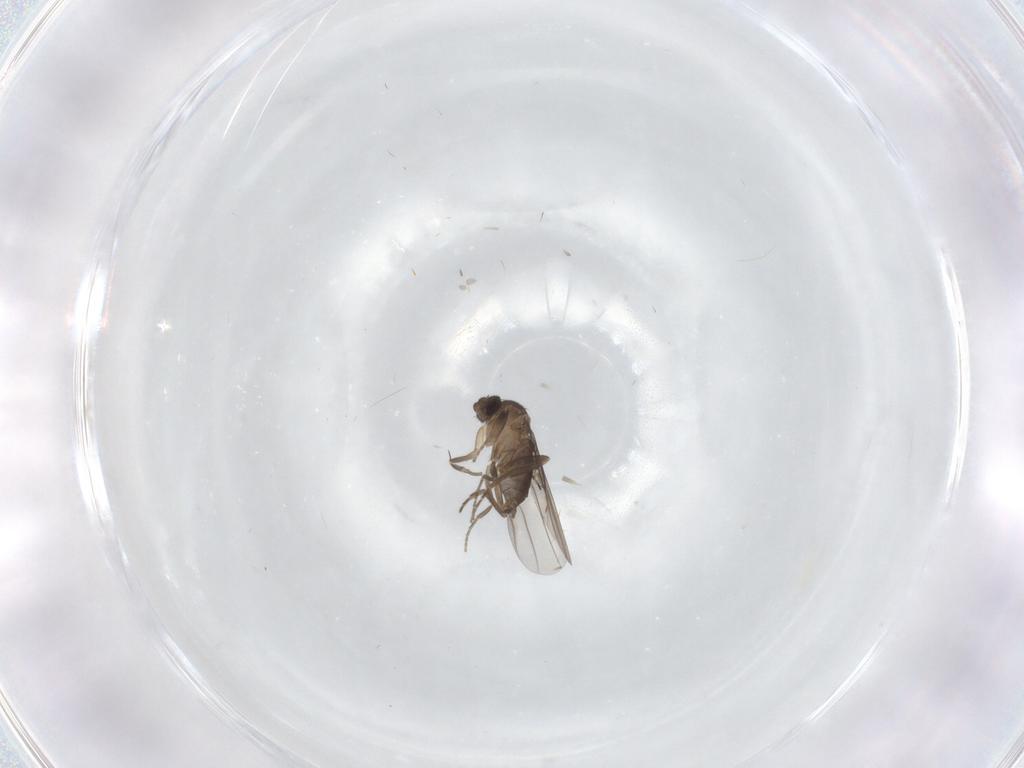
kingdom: Animalia
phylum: Arthropoda
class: Insecta
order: Diptera
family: Phoridae
